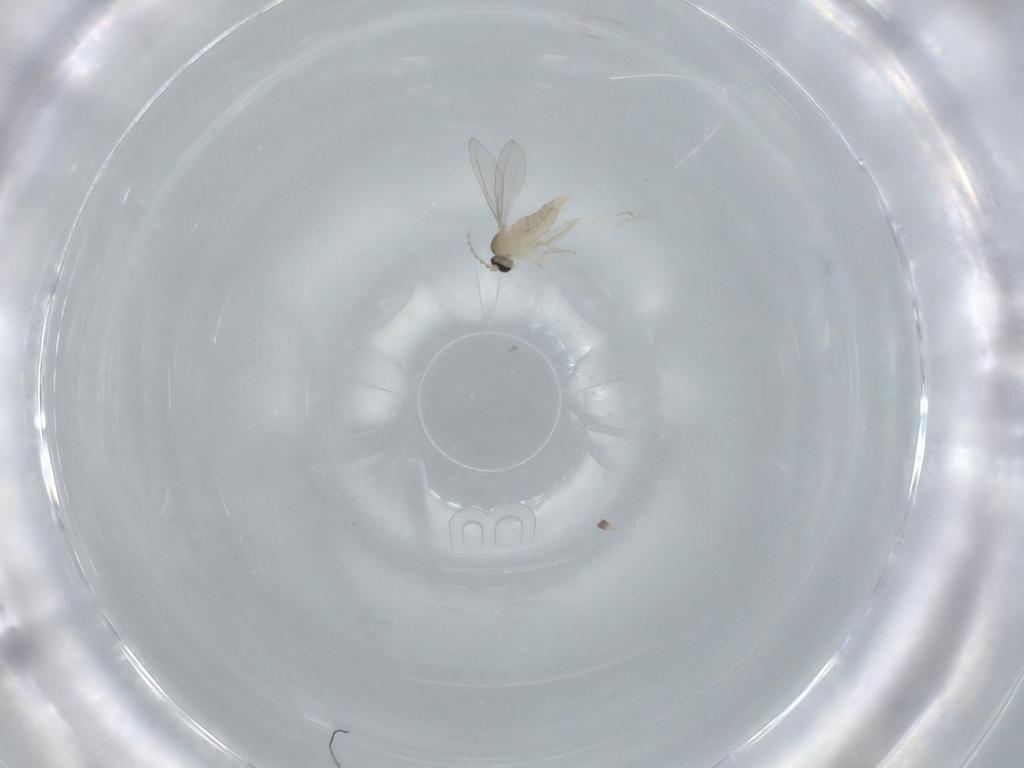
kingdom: Animalia
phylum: Arthropoda
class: Insecta
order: Diptera
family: Cecidomyiidae
